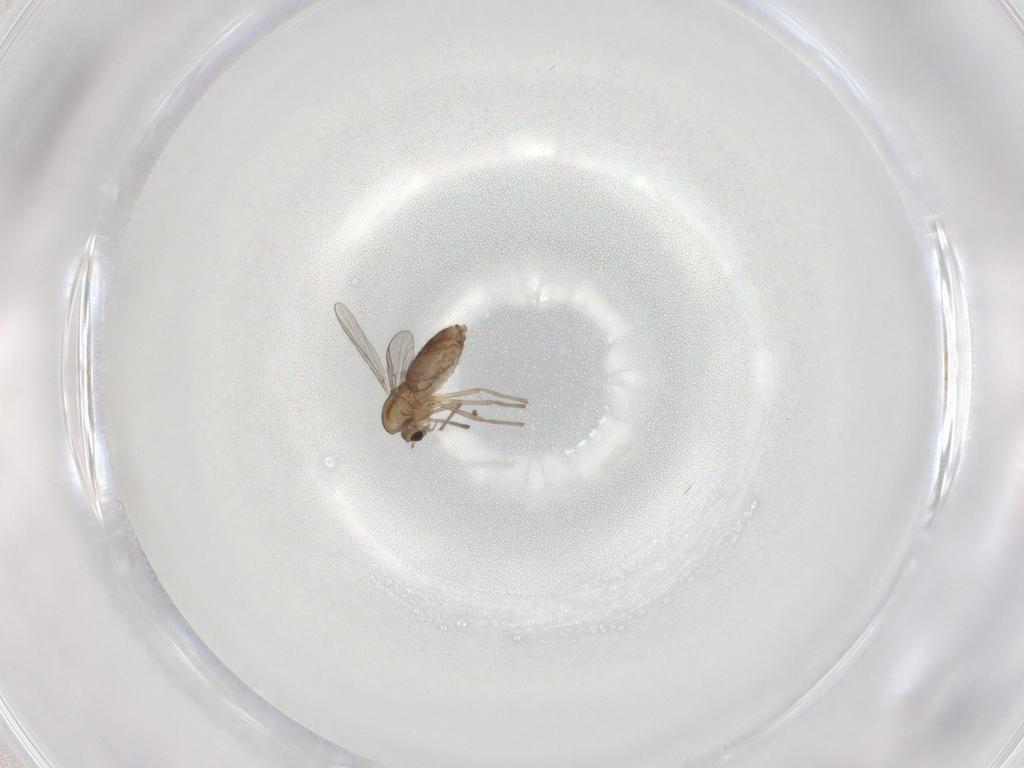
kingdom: Animalia
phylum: Arthropoda
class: Insecta
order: Diptera
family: Chironomidae
